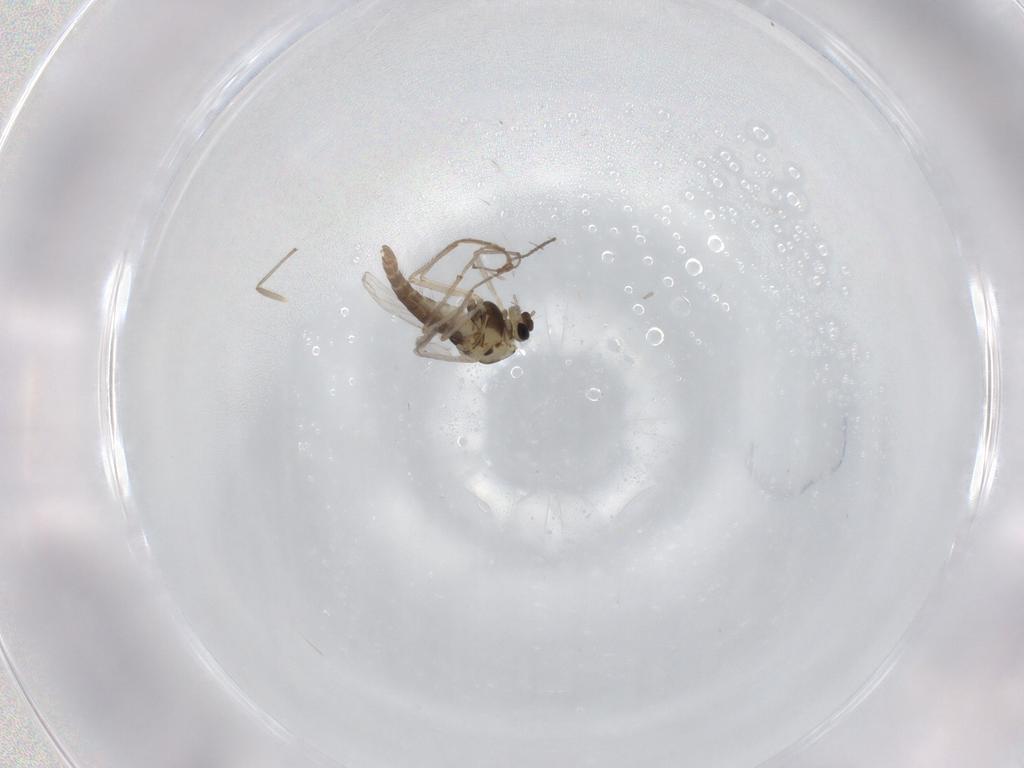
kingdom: Animalia
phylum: Arthropoda
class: Insecta
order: Diptera
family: Chironomidae
